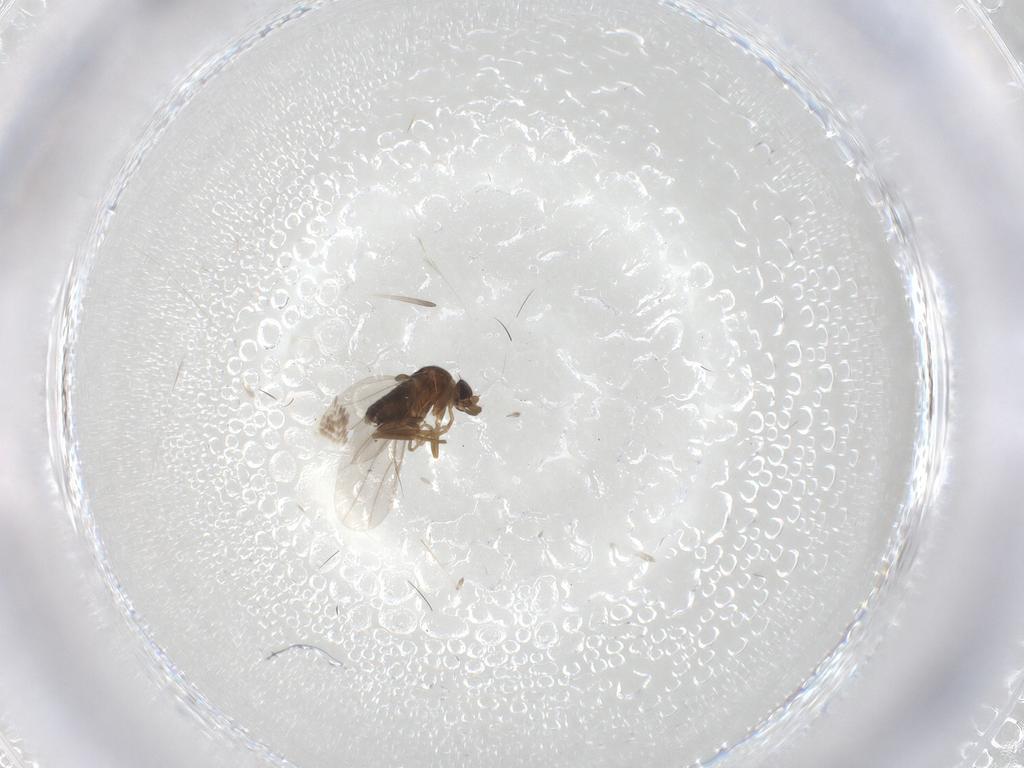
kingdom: Animalia
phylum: Arthropoda
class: Insecta
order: Diptera
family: Phoridae
